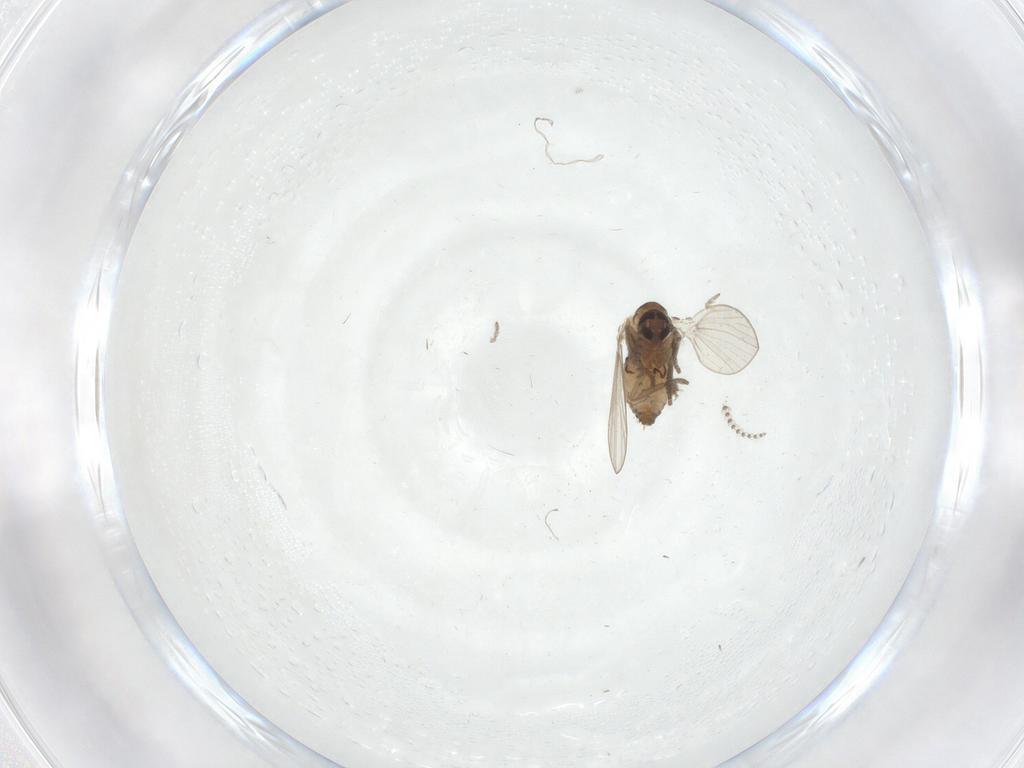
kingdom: Animalia
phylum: Arthropoda
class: Insecta
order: Diptera
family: Psychodidae
